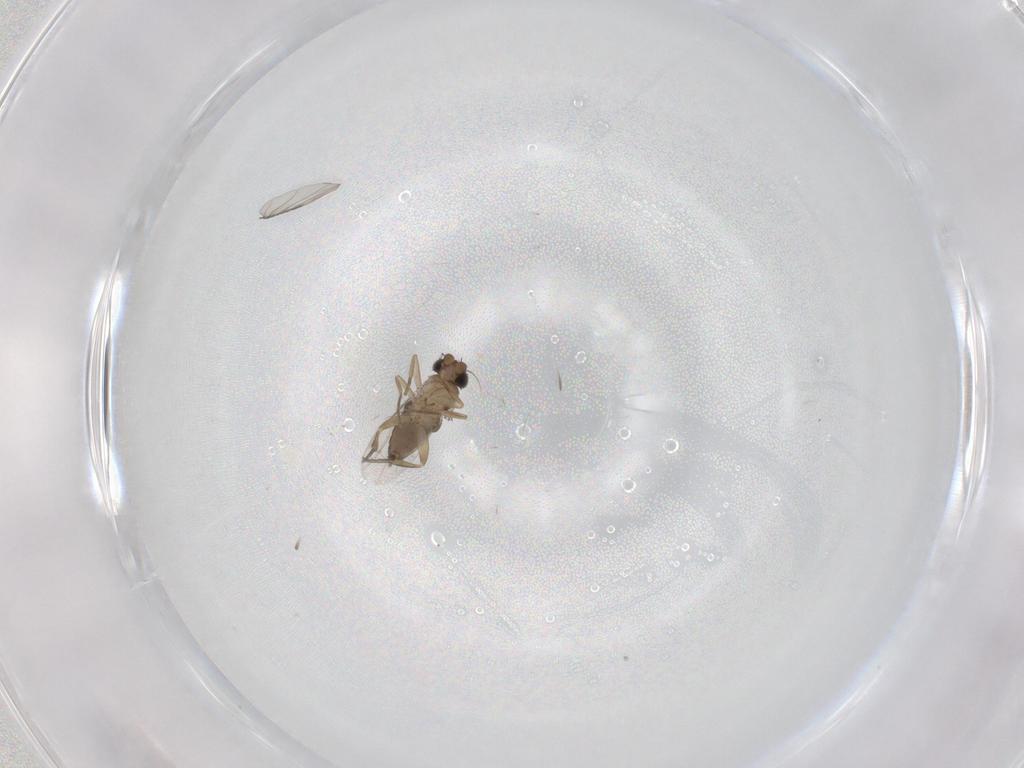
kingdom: Animalia
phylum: Arthropoda
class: Insecta
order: Diptera
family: Phoridae
